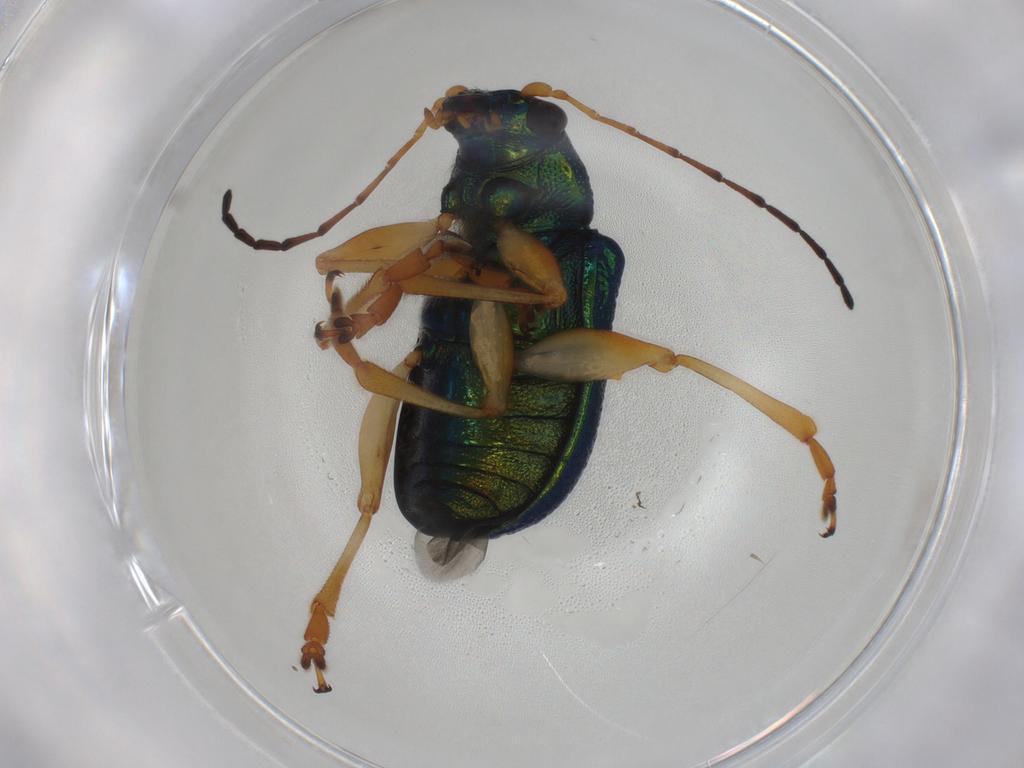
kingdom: Animalia
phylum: Arthropoda
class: Insecta
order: Coleoptera
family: Chrysomelidae
